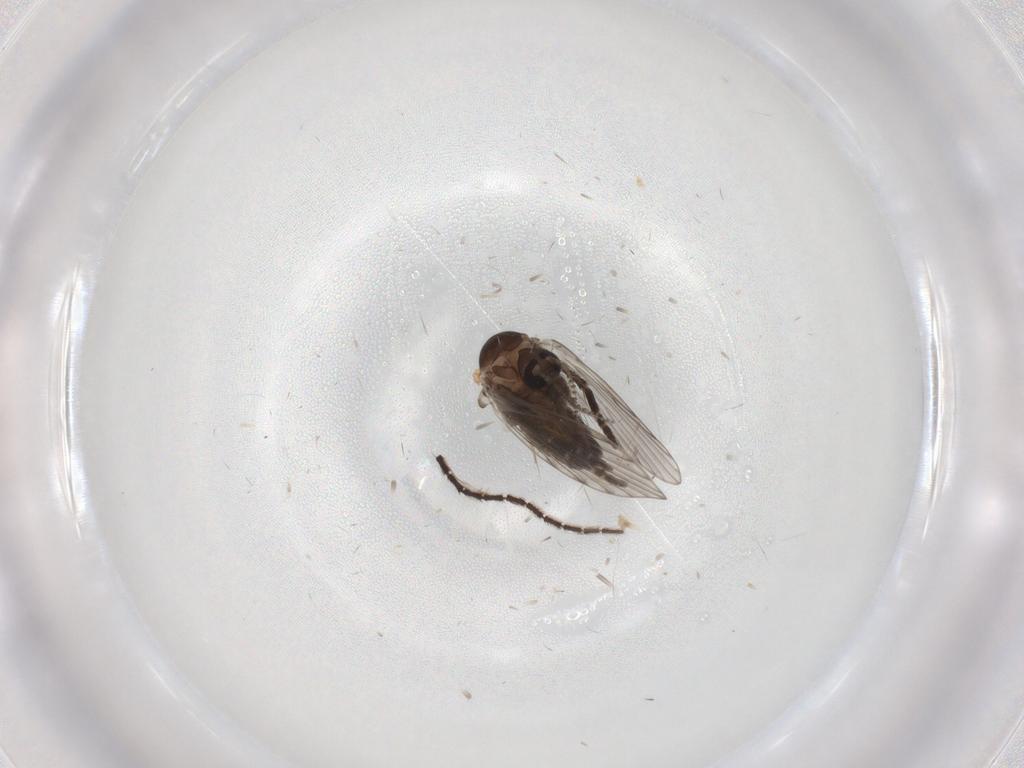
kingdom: Animalia
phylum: Arthropoda
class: Insecta
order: Diptera
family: Sciaridae
